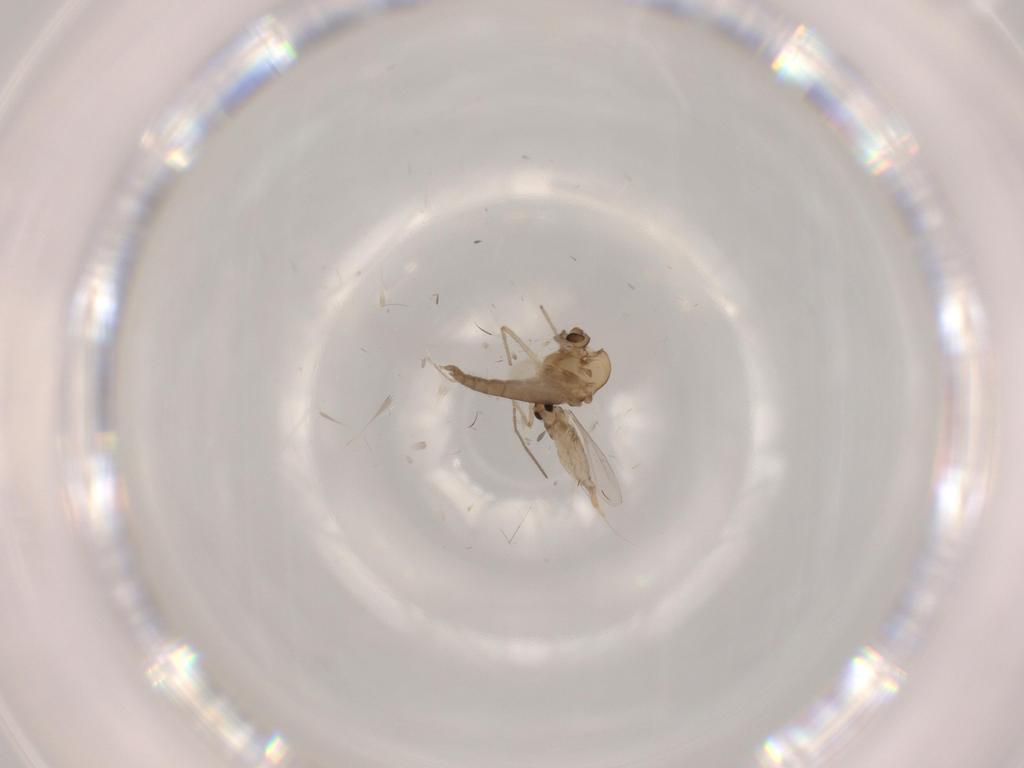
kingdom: Animalia
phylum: Arthropoda
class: Insecta
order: Diptera
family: Chironomidae
